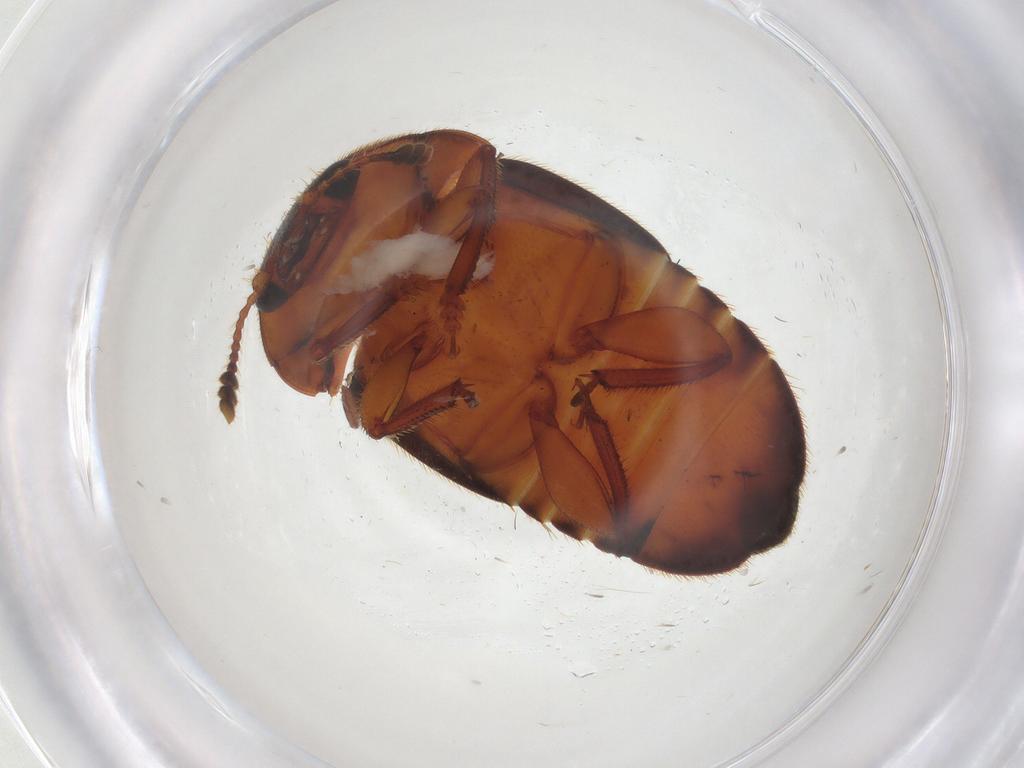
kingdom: Animalia
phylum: Arthropoda
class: Insecta
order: Coleoptera
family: Nitidulidae
